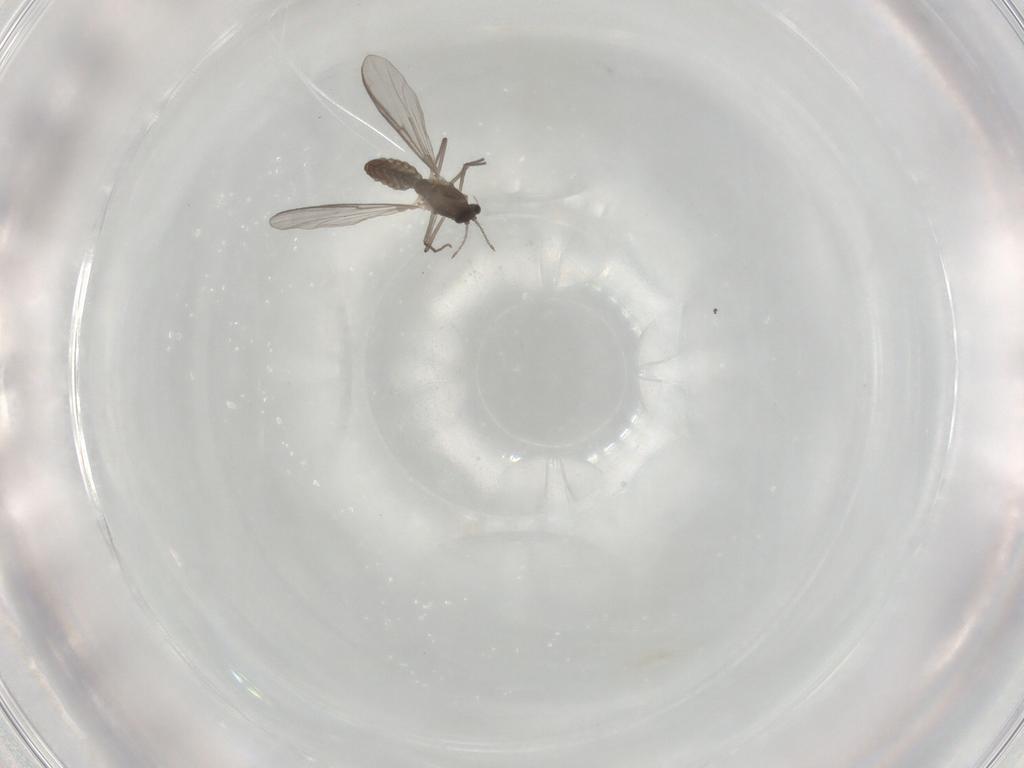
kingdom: Animalia
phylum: Arthropoda
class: Insecta
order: Diptera
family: Chironomidae
